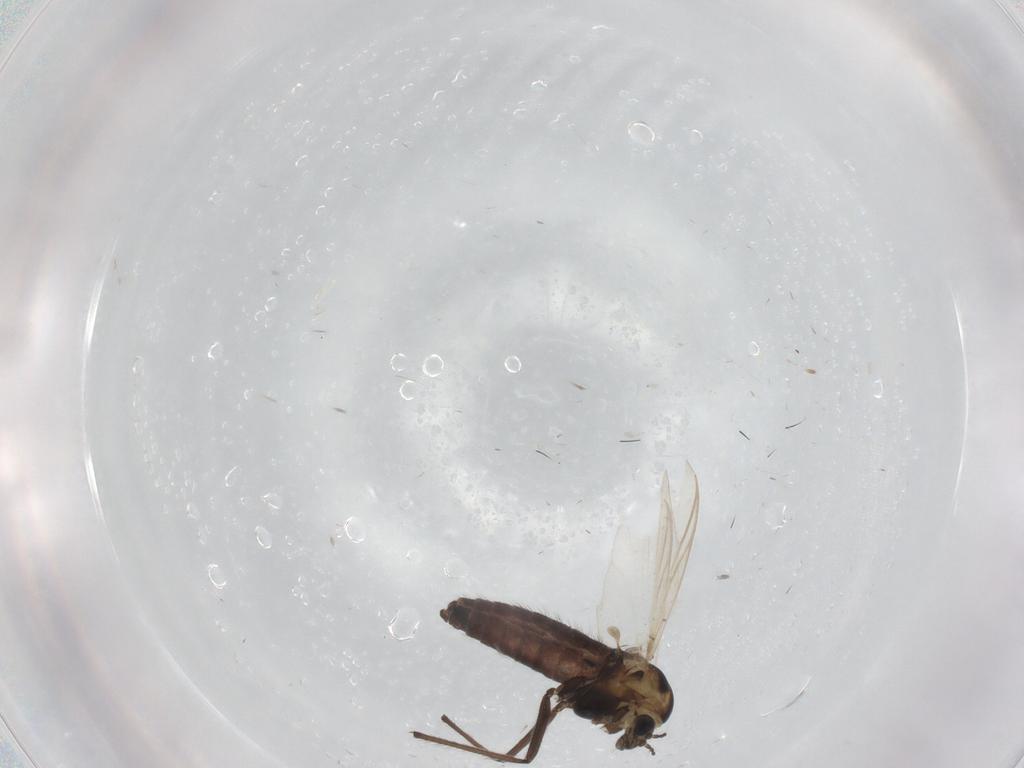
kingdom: Animalia
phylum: Arthropoda
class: Insecta
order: Diptera
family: Chironomidae
